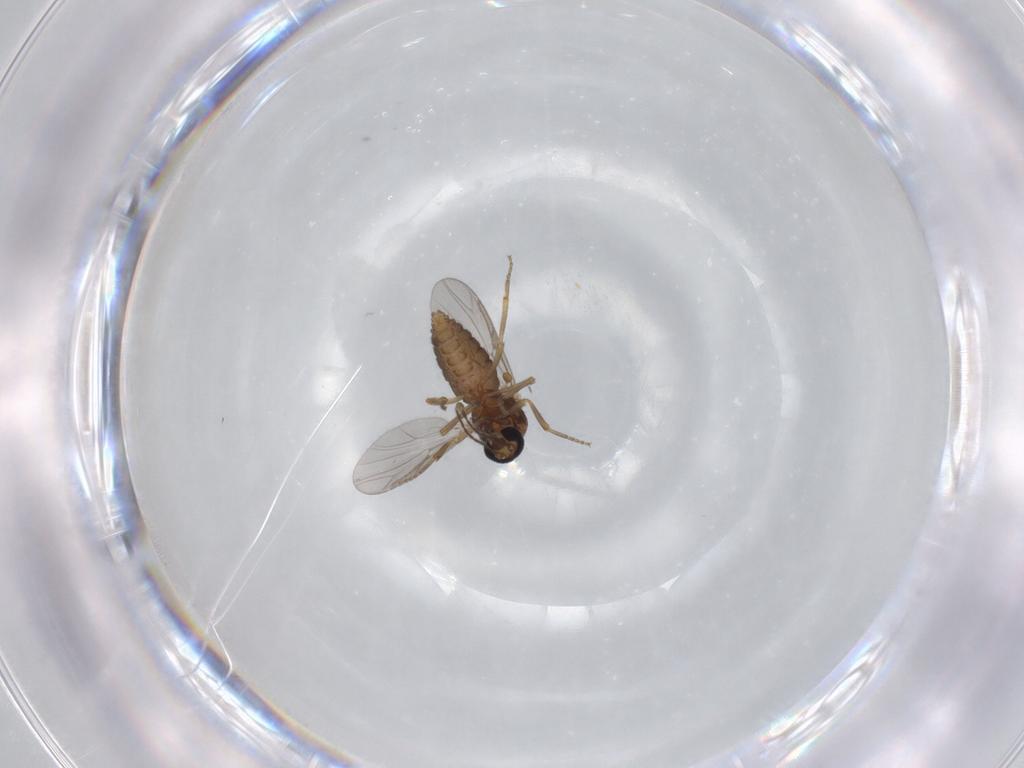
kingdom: Animalia
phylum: Arthropoda
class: Insecta
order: Diptera
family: Ceratopogonidae
